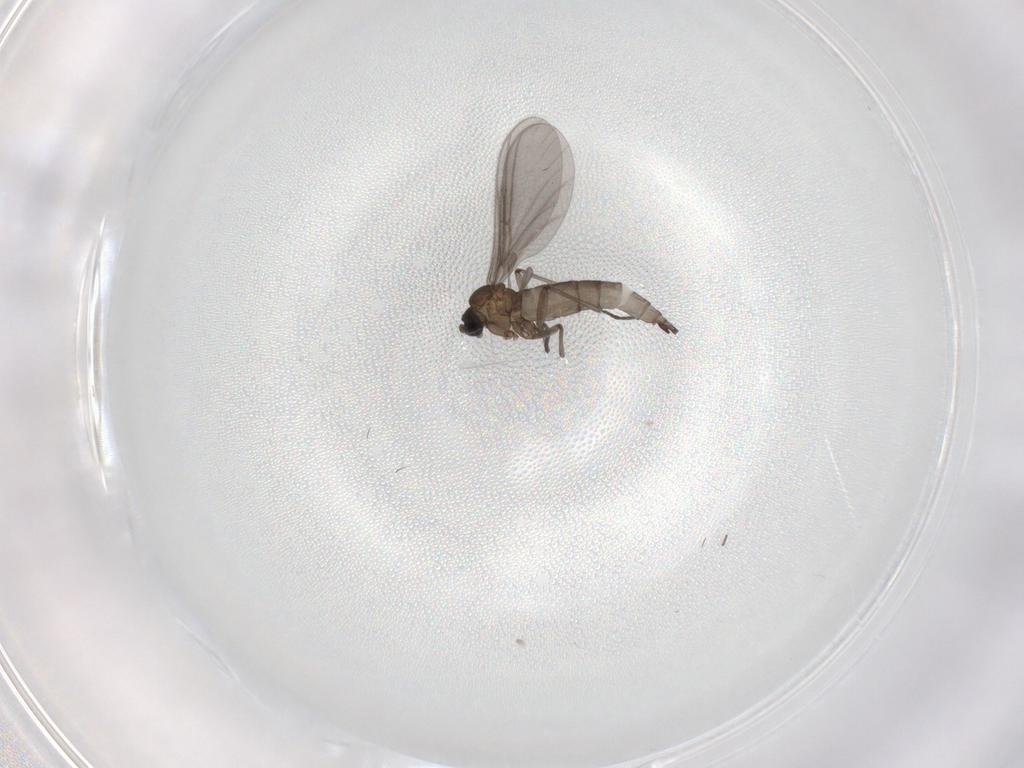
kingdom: Animalia
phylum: Arthropoda
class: Insecta
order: Diptera
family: Sciaridae
